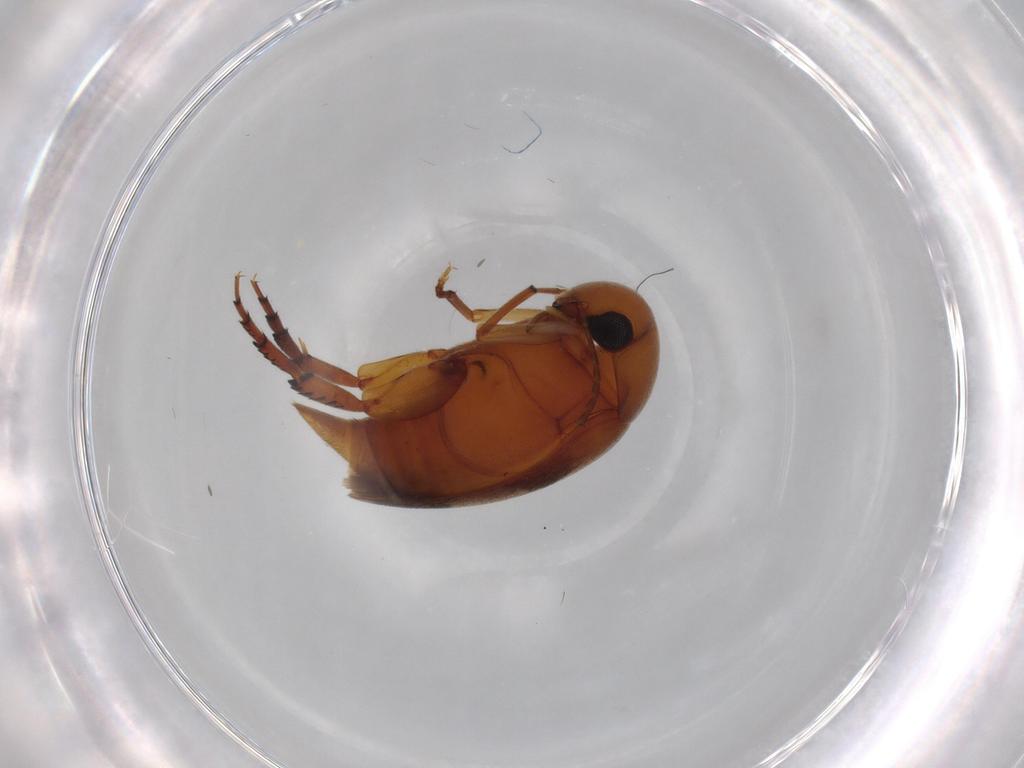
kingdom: Animalia
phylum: Arthropoda
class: Insecta
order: Coleoptera
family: Mordellidae
